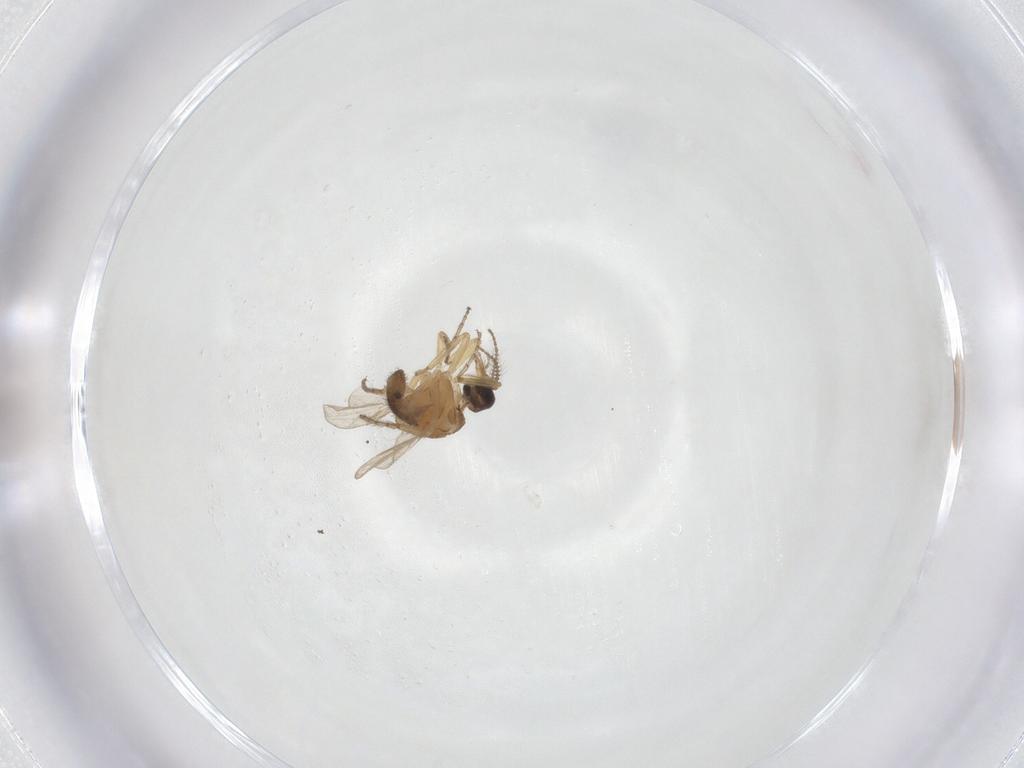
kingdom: Animalia
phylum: Arthropoda
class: Insecta
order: Diptera
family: Ceratopogonidae
